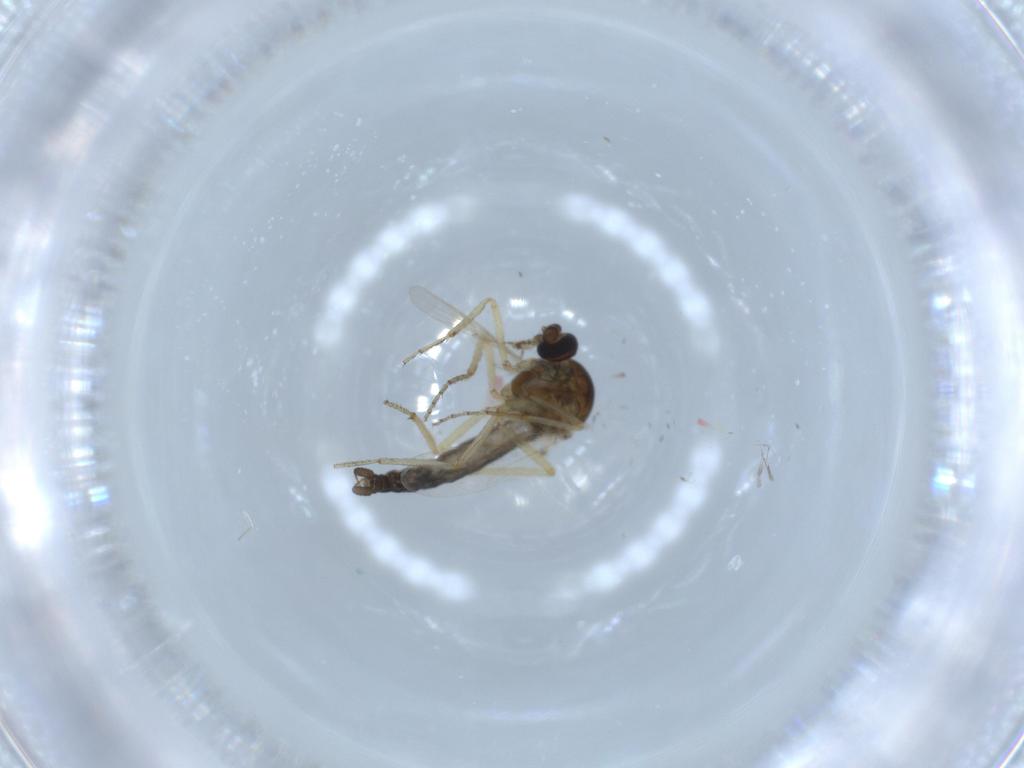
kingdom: Animalia
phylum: Arthropoda
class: Insecta
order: Diptera
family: Ceratopogonidae
